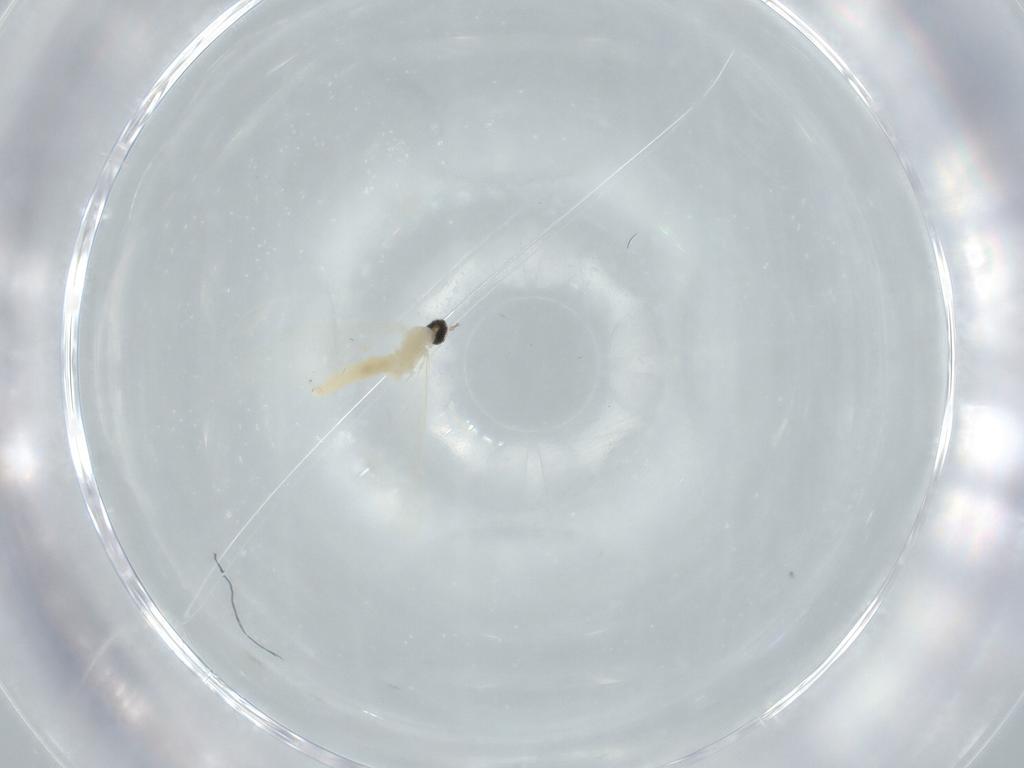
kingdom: Animalia
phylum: Arthropoda
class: Insecta
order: Diptera
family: Cecidomyiidae
